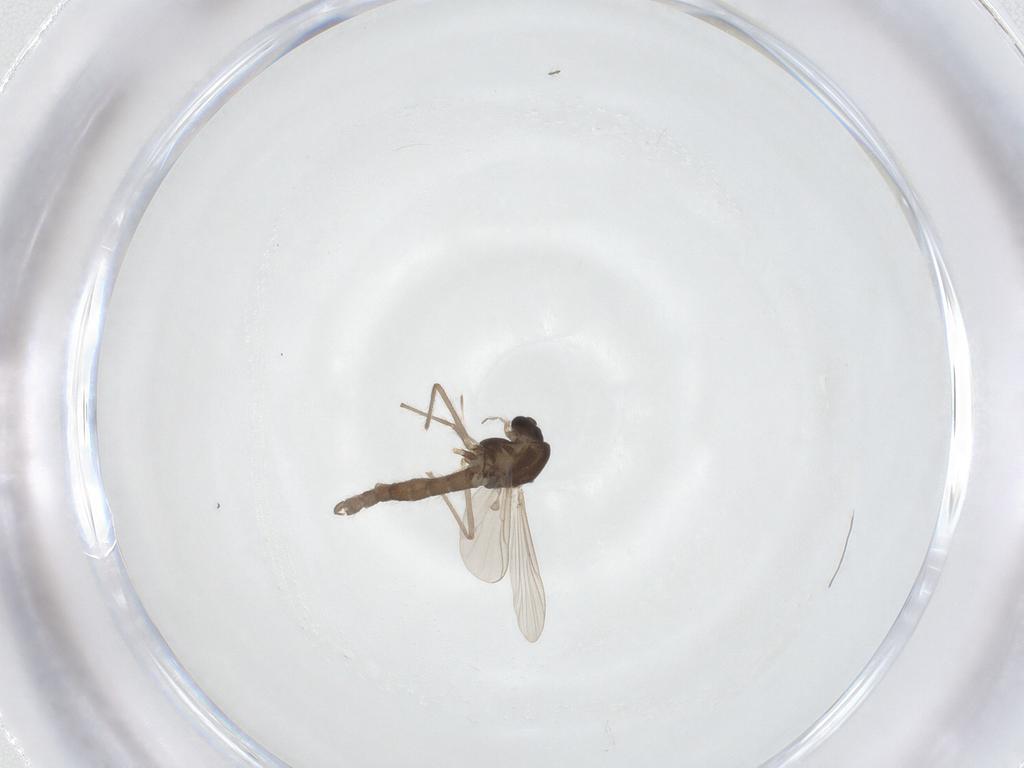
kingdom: Animalia
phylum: Arthropoda
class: Insecta
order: Diptera
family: Chironomidae
